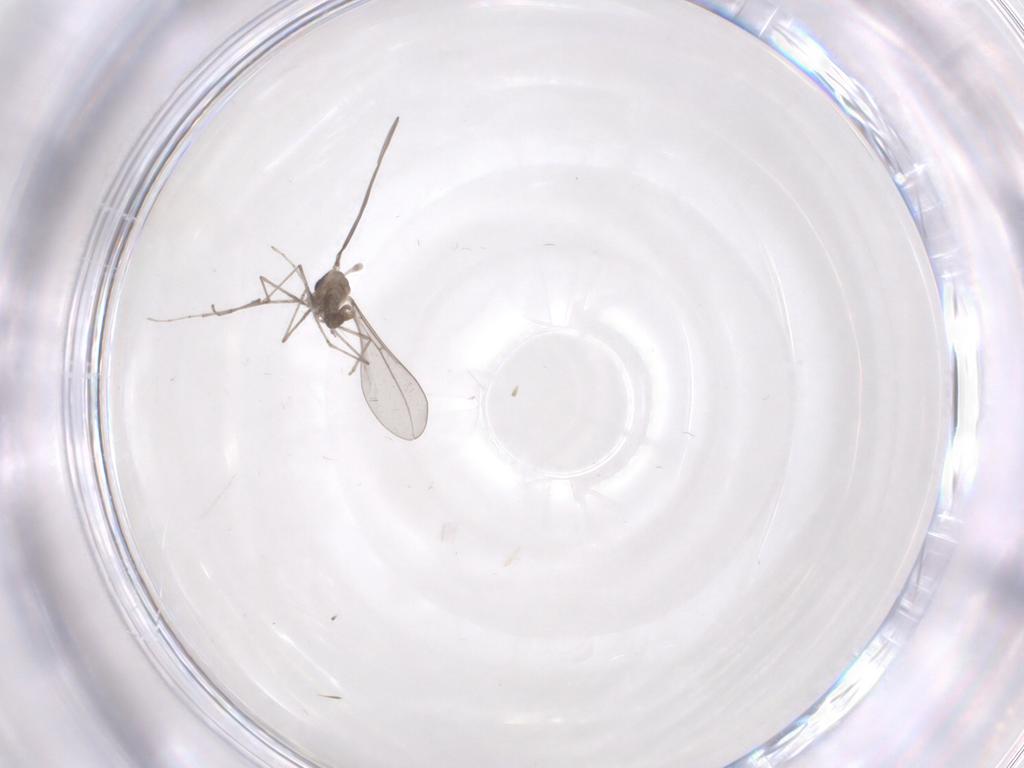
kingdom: Animalia
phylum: Arthropoda
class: Insecta
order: Diptera
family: Cecidomyiidae
